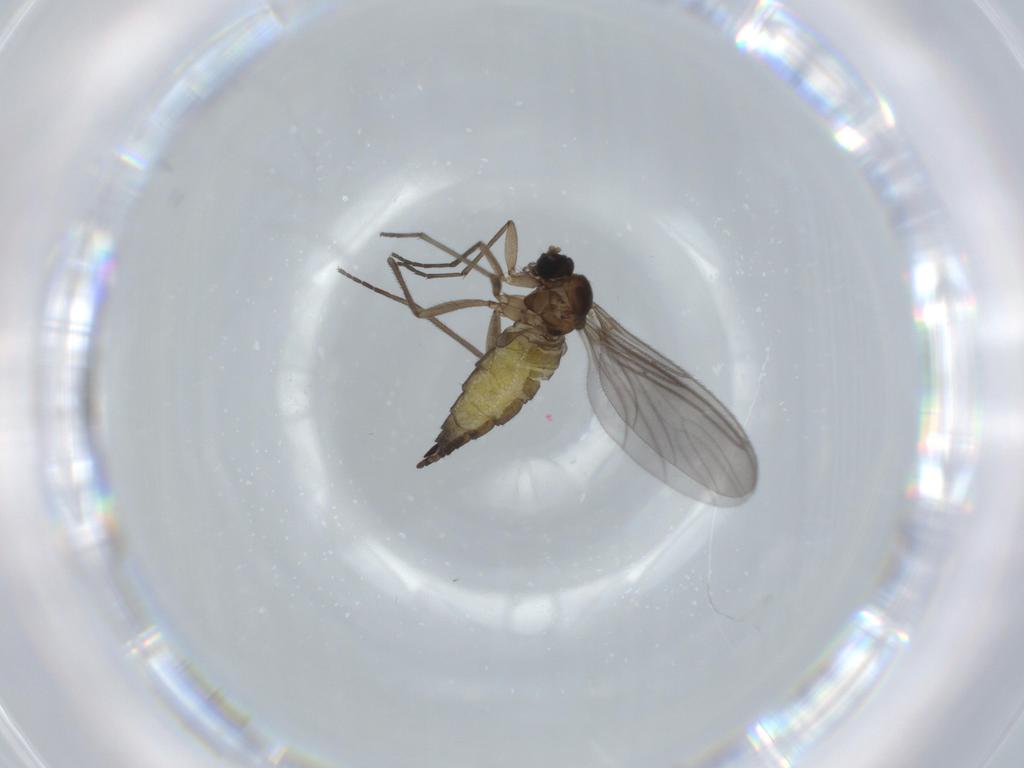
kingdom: Animalia
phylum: Arthropoda
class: Insecta
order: Diptera
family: Sciaridae
